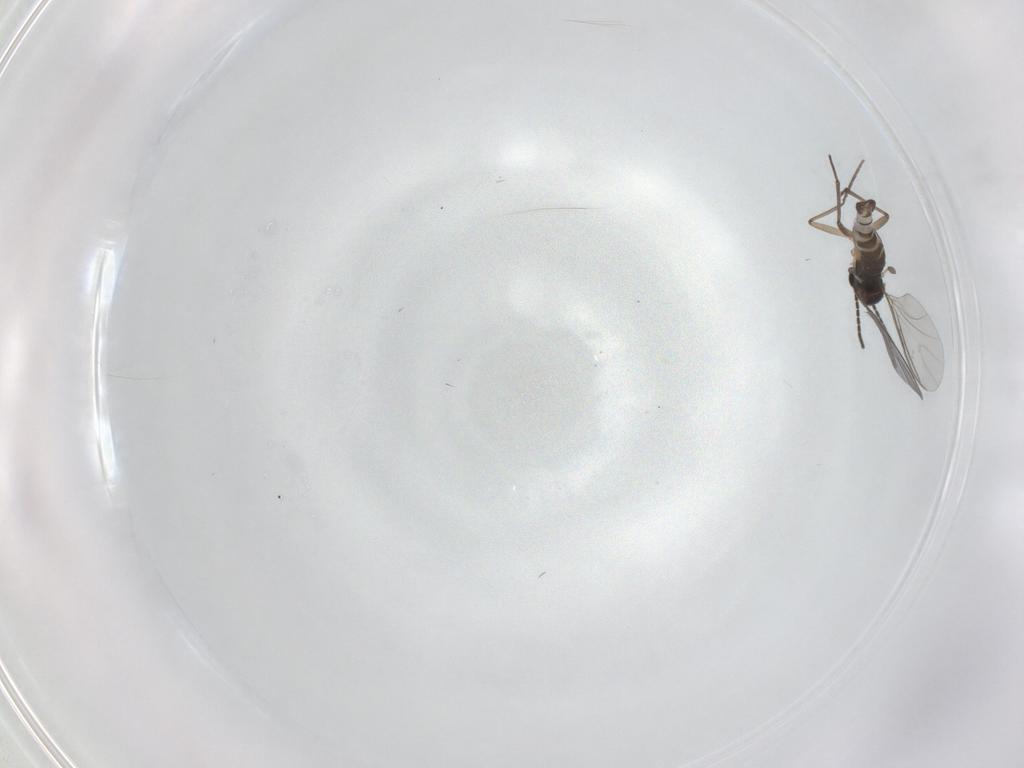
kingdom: Animalia
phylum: Arthropoda
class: Insecta
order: Diptera
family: Sciaridae
